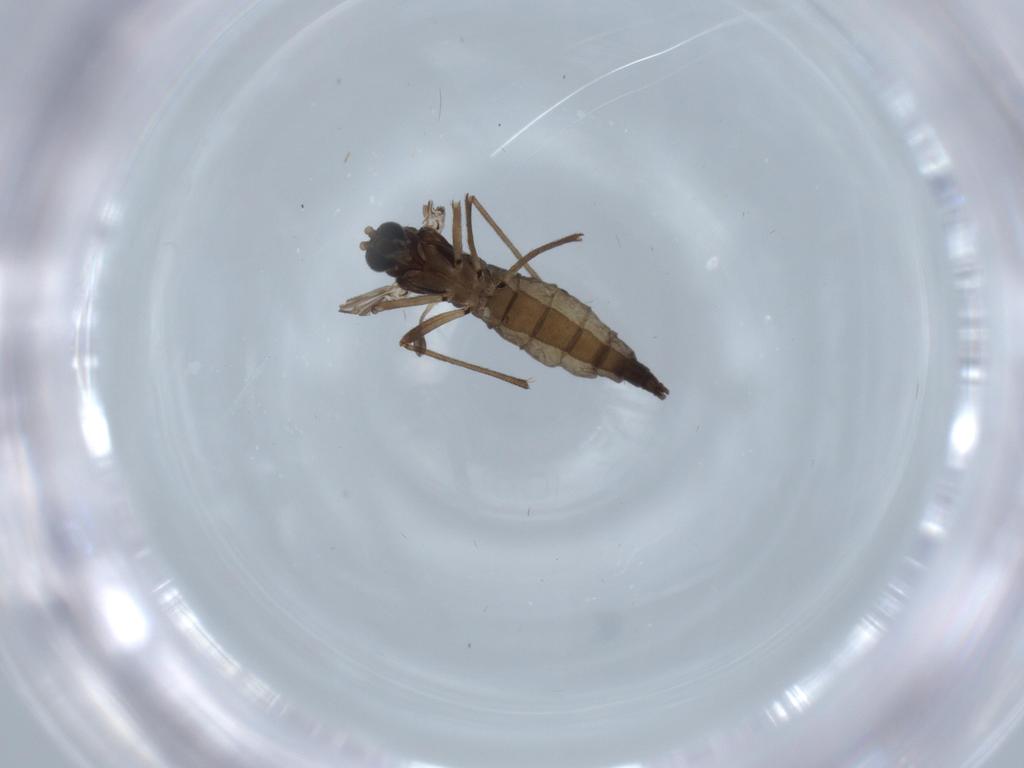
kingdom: Animalia
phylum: Arthropoda
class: Insecta
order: Diptera
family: Sciaridae
